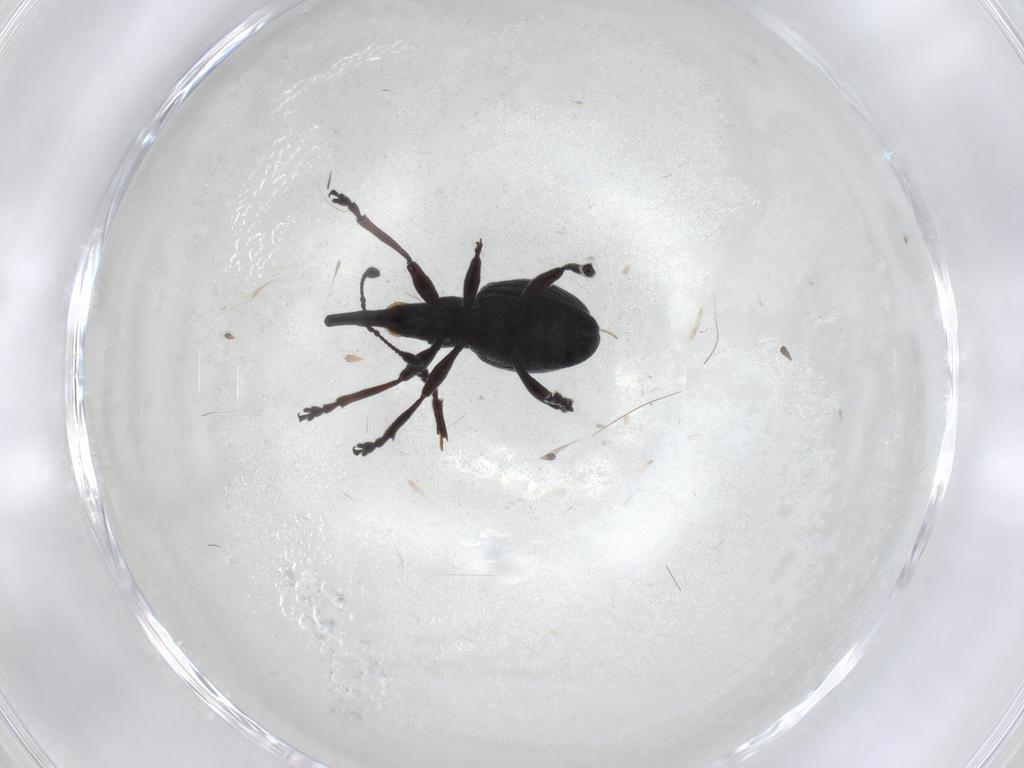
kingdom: Animalia
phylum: Arthropoda
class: Insecta
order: Coleoptera
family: Brentidae
